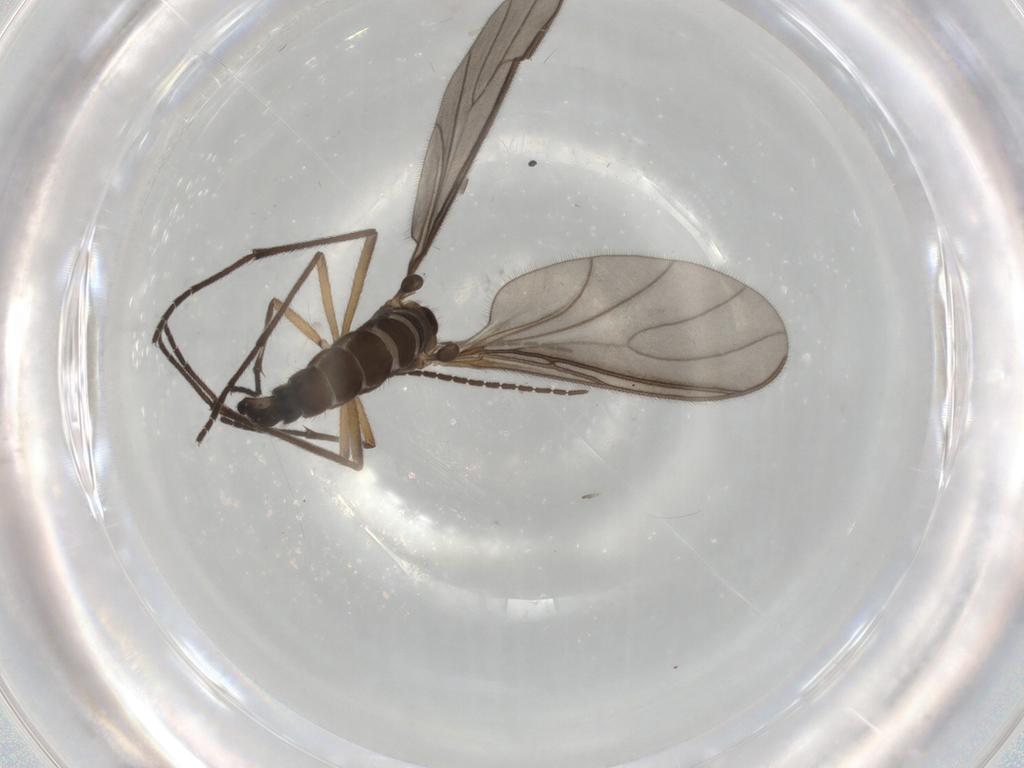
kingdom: Animalia
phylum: Arthropoda
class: Insecta
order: Diptera
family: Sciaridae
